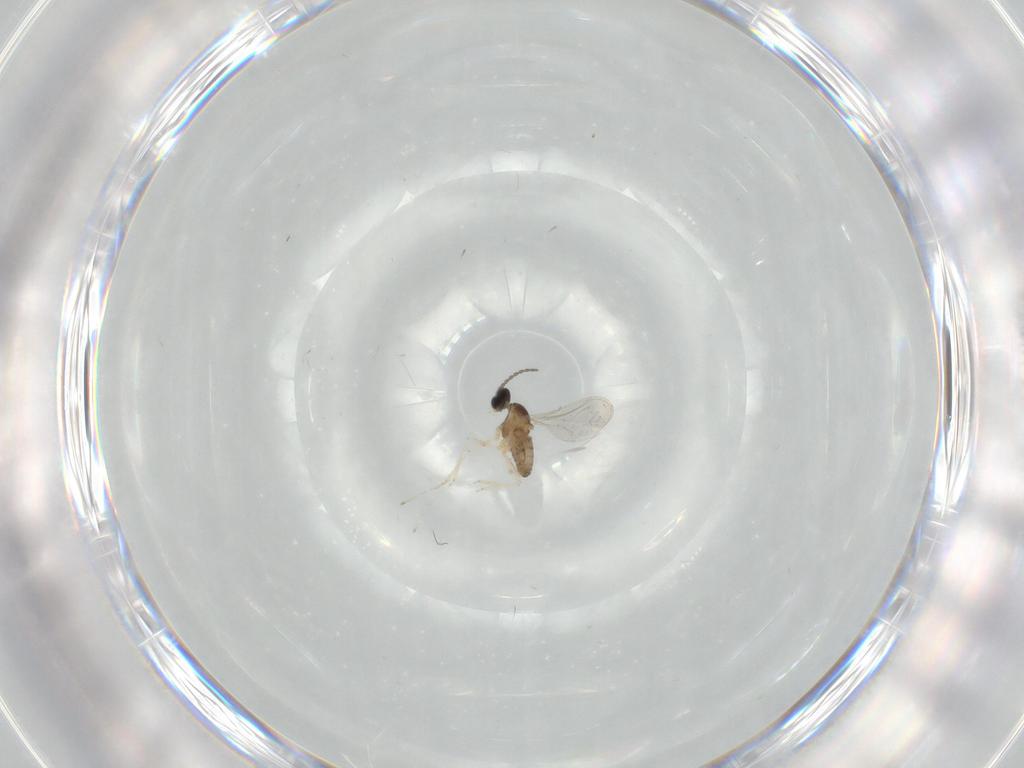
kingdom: Animalia
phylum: Arthropoda
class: Insecta
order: Diptera
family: Cecidomyiidae
